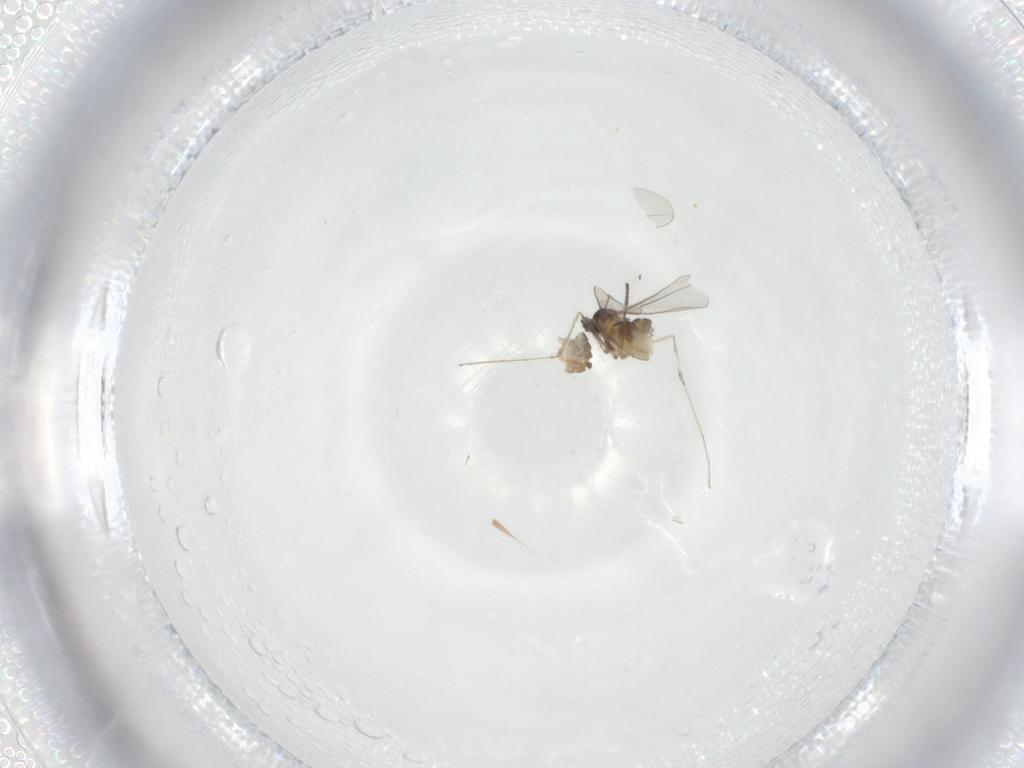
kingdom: Animalia
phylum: Arthropoda
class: Insecta
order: Diptera
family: Cecidomyiidae
